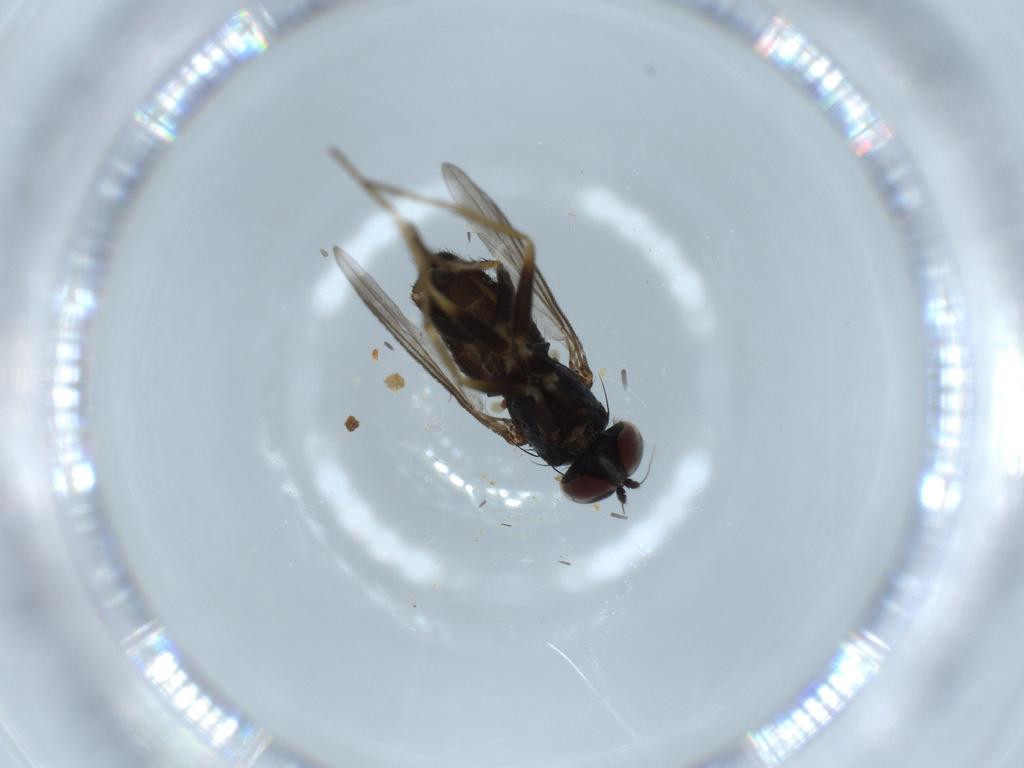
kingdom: Animalia
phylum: Arthropoda
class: Insecta
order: Diptera
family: Dolichopodidae
